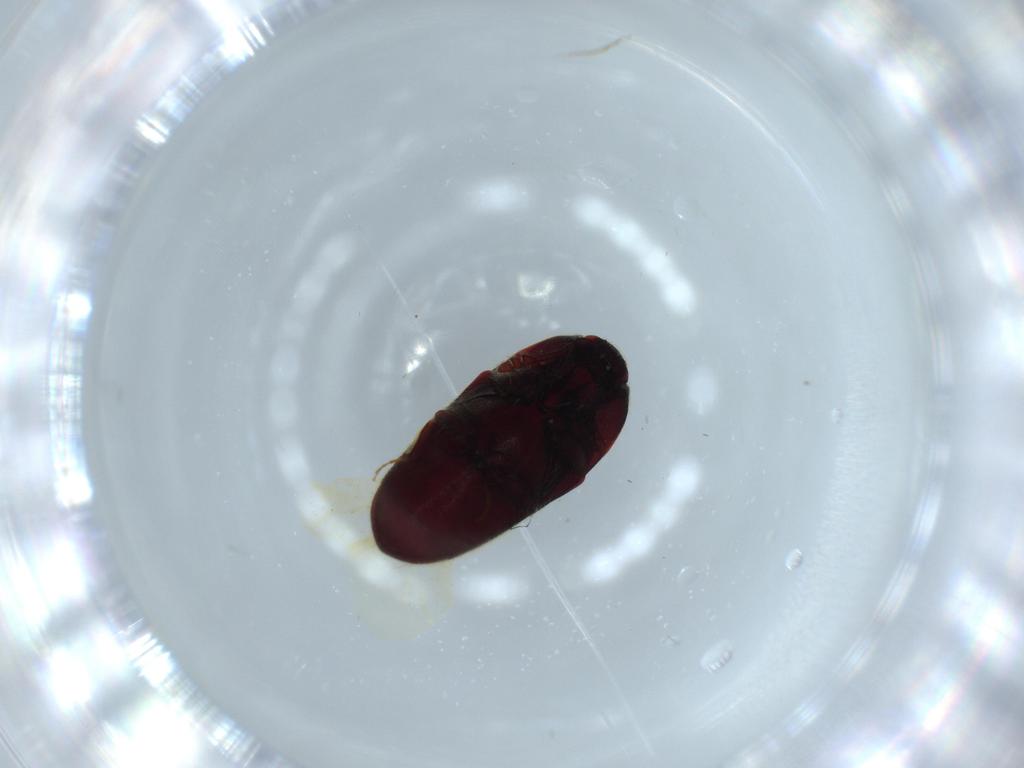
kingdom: Animalia
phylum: Arthropoda
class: Insecta
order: Coleoptera
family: Throscidae
